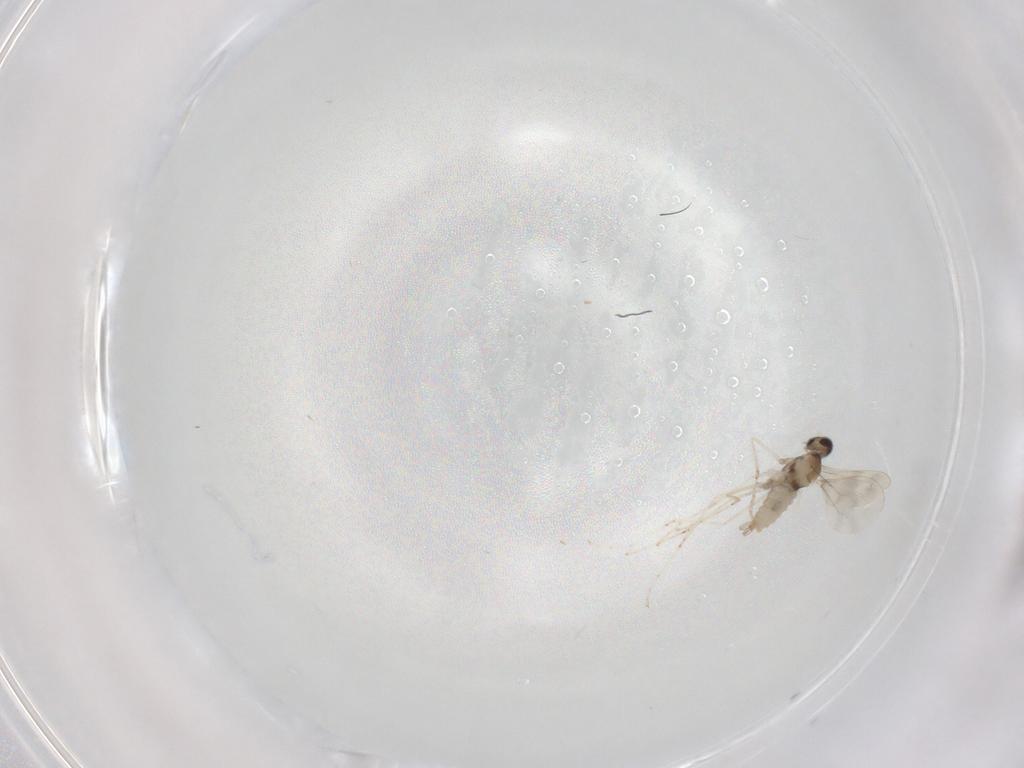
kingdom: Animalia
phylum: Arthropoda
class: Insecta
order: Diptera
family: Cecidomyiidae
